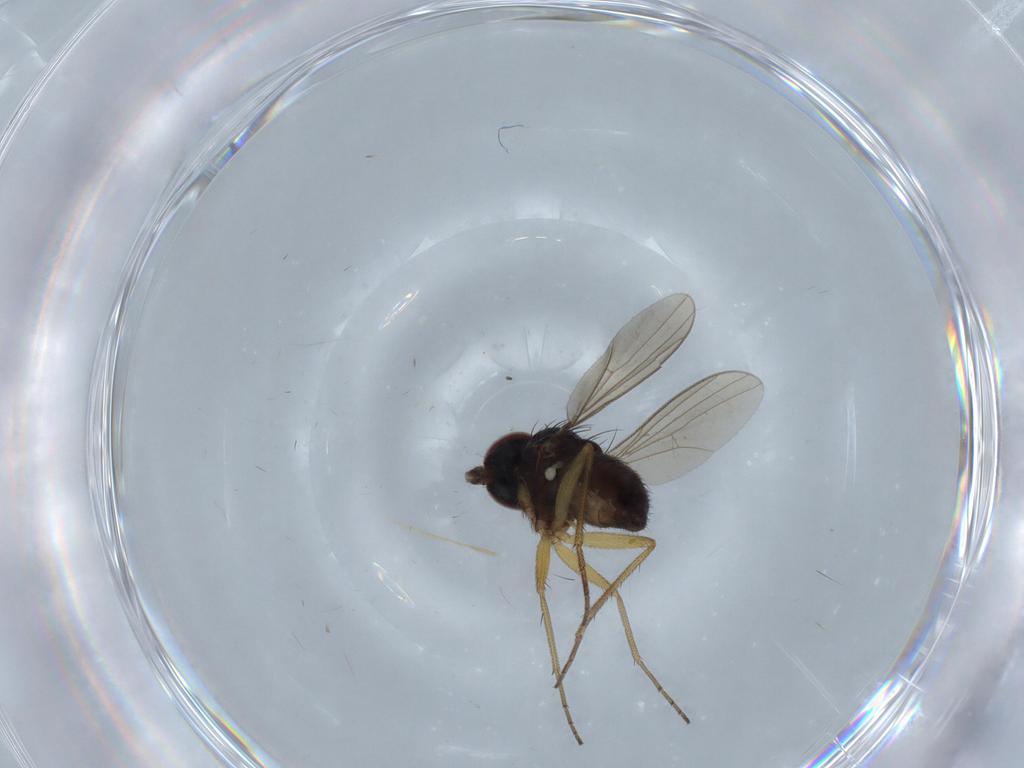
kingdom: Animalia
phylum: Arthropoda
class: Insecta
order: Diptera
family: Dolichopodidae
